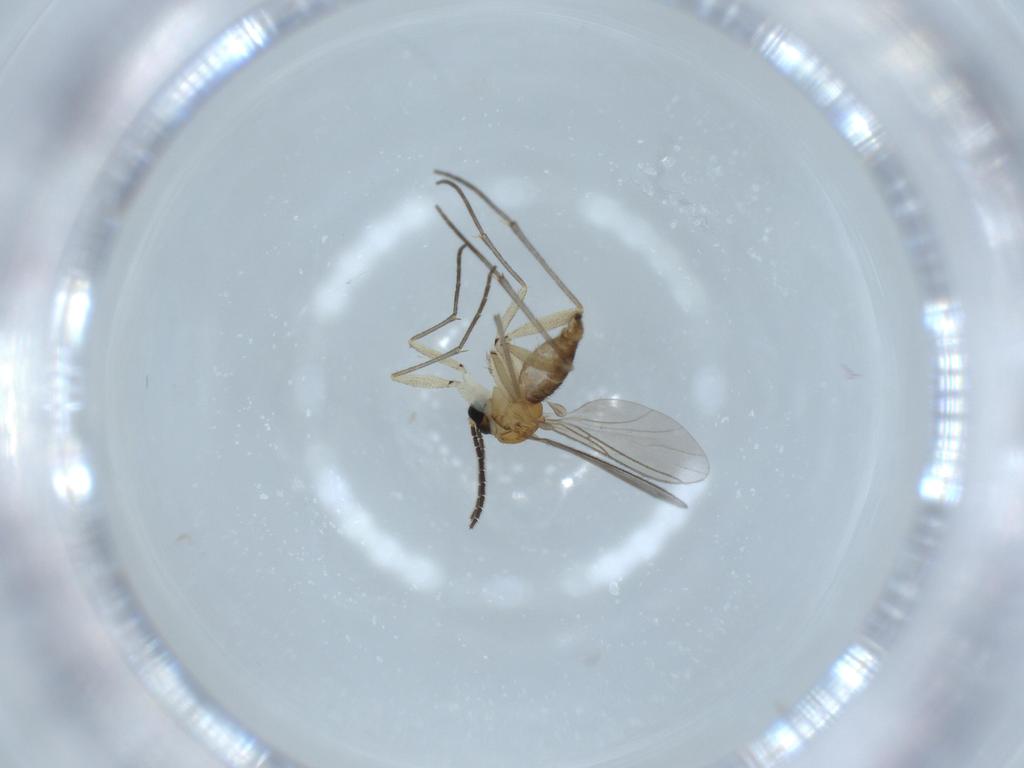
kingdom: Animalia
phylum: Arthropoda
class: Insecta
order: Diptera
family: Sciaridae
